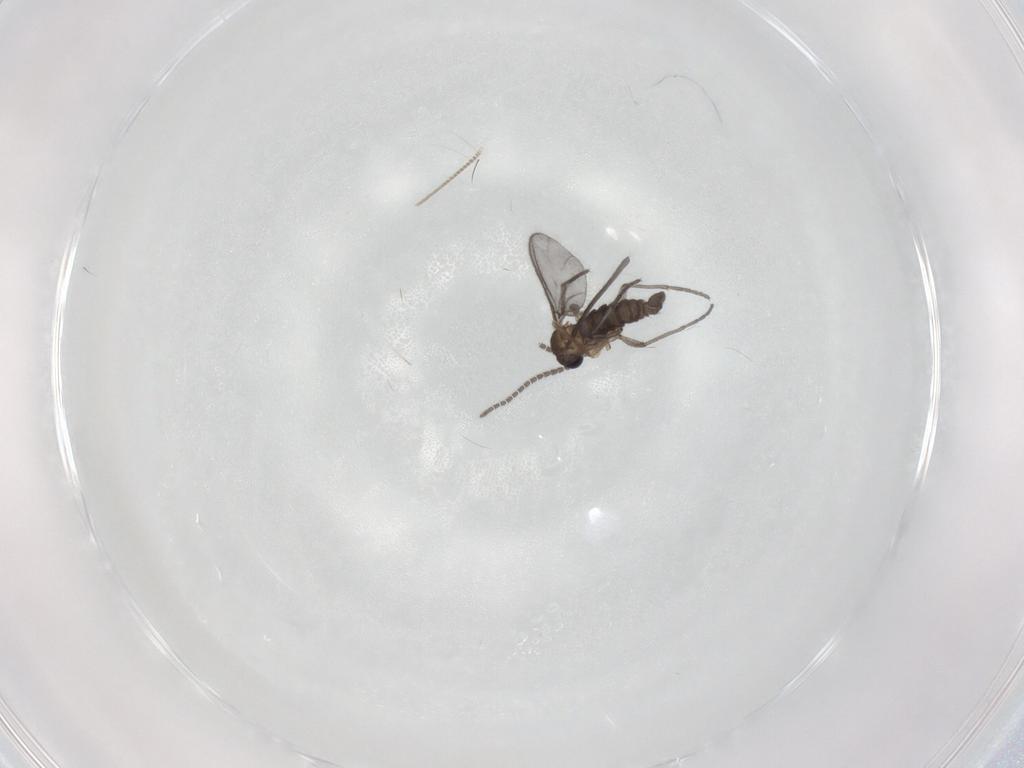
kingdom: Animalia
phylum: Arthropoda
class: Insecta
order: Diptera
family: Sciaridae
